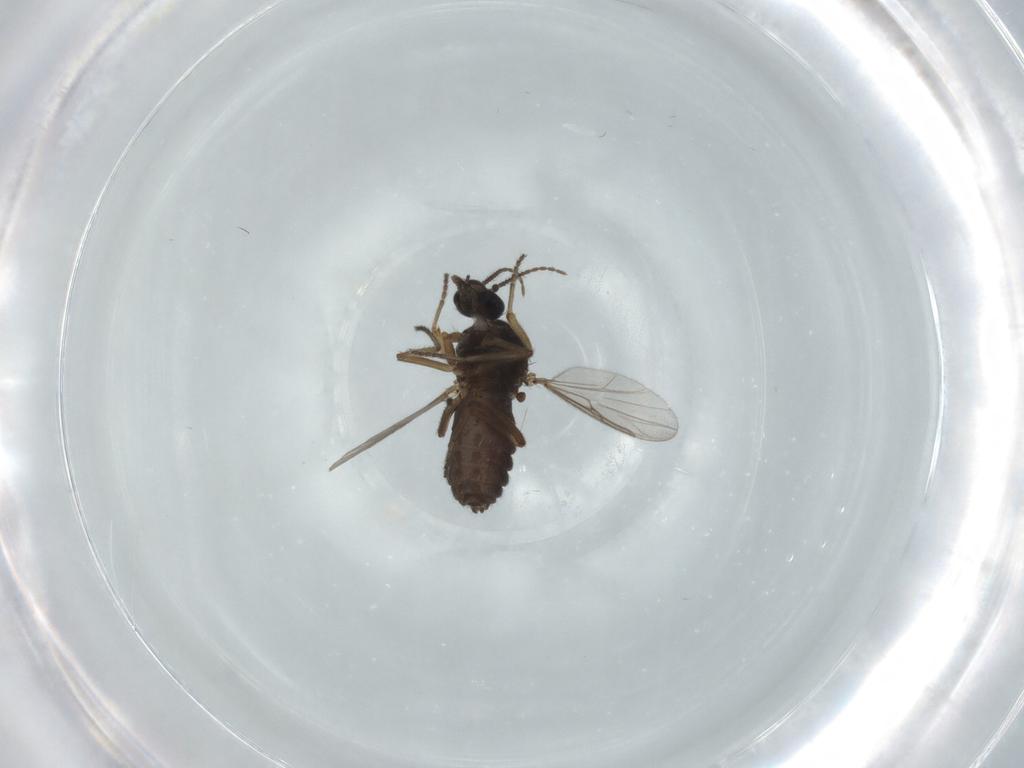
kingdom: Animalia
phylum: Arthropoda
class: Insecta
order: Diptera
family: Ceratopogonidae
